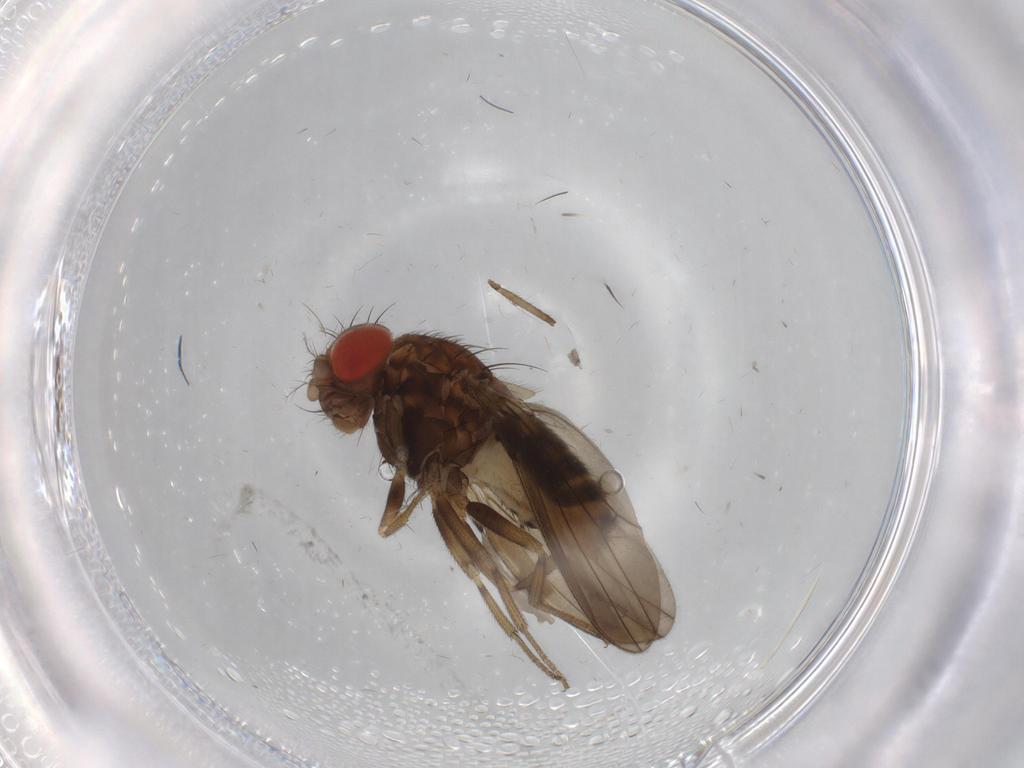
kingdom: Animalia
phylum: Arthropoda
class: Insecta
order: Diptera
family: Drosophilidae
